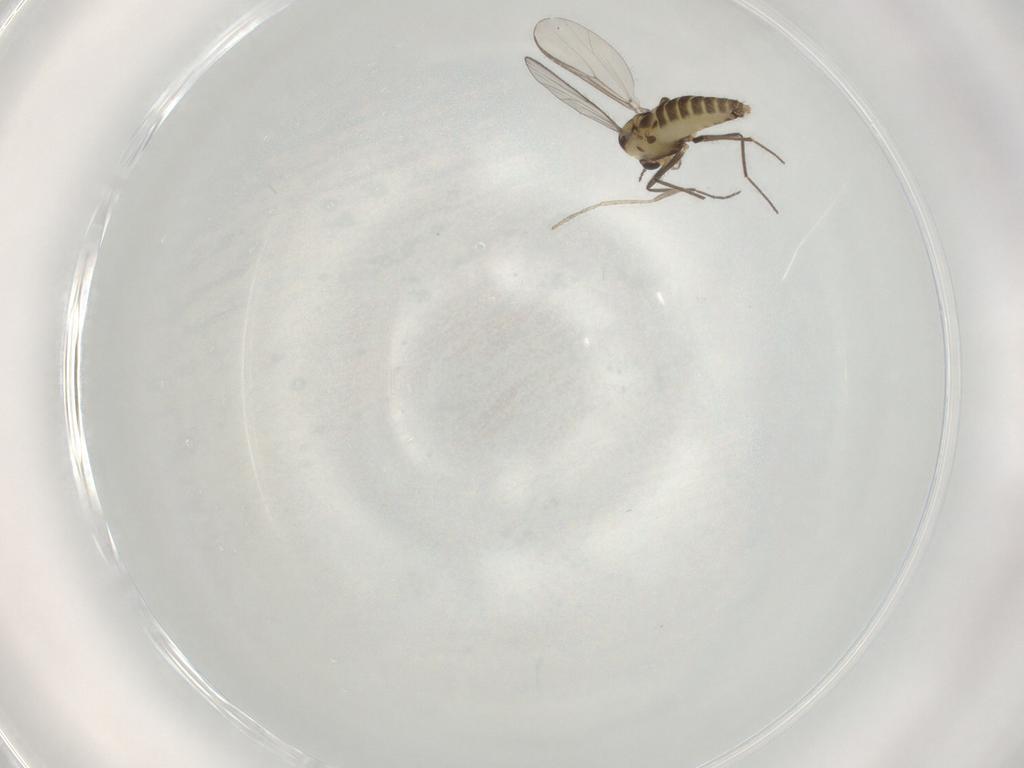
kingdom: Animalia
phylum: Arthropoda
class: Insecta
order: Diptera
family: Chironomidae
